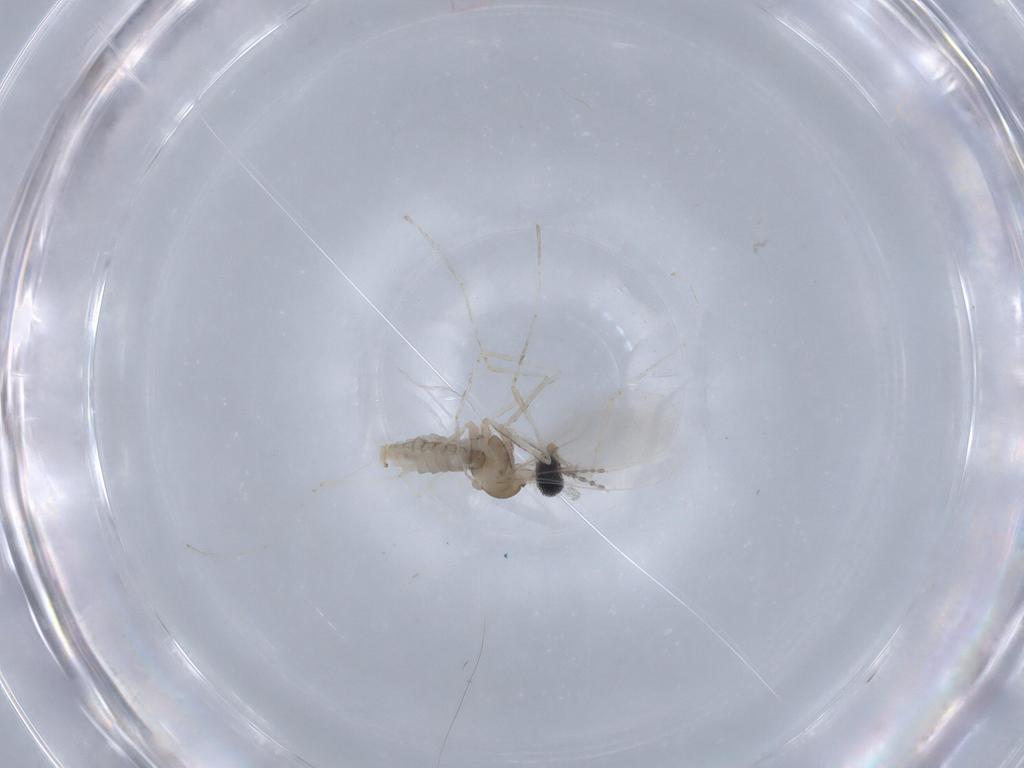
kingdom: Animalia
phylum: Arthropoda
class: Insecta
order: Diptera
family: Cecidomyiidae
